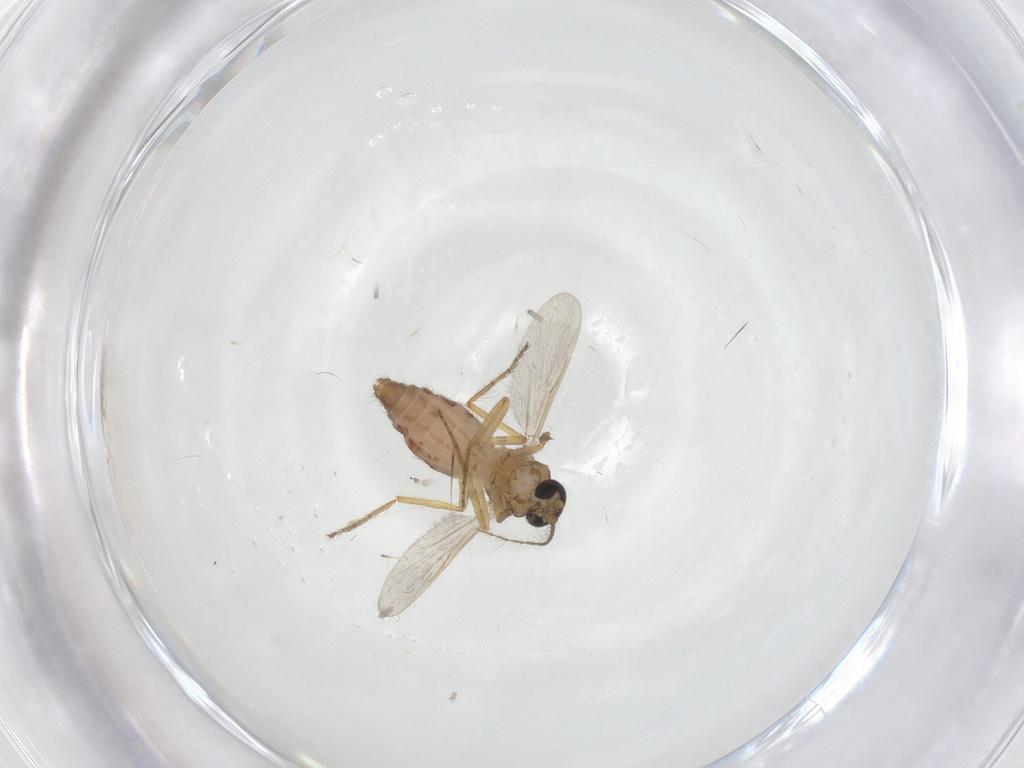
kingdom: Animalia
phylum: Arthropoda
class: Insecta
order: Diptera
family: Ceratopogonidae
